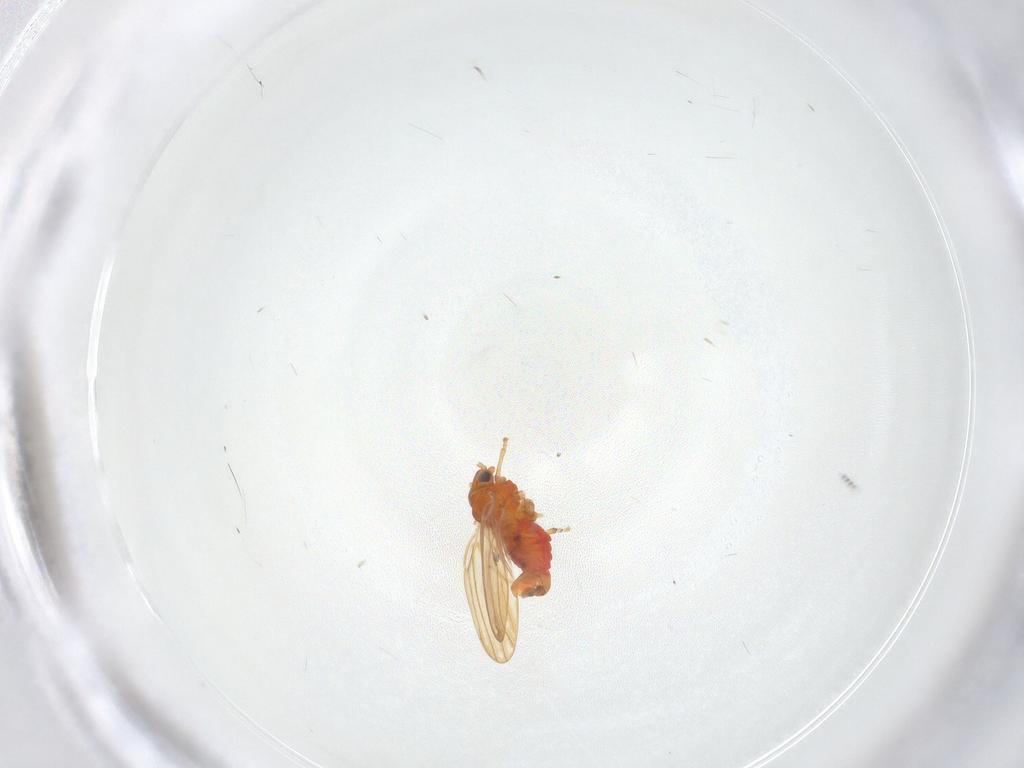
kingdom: Animalia
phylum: Arthropoda
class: Insecta
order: Hemiptera
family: Aphalaridae
